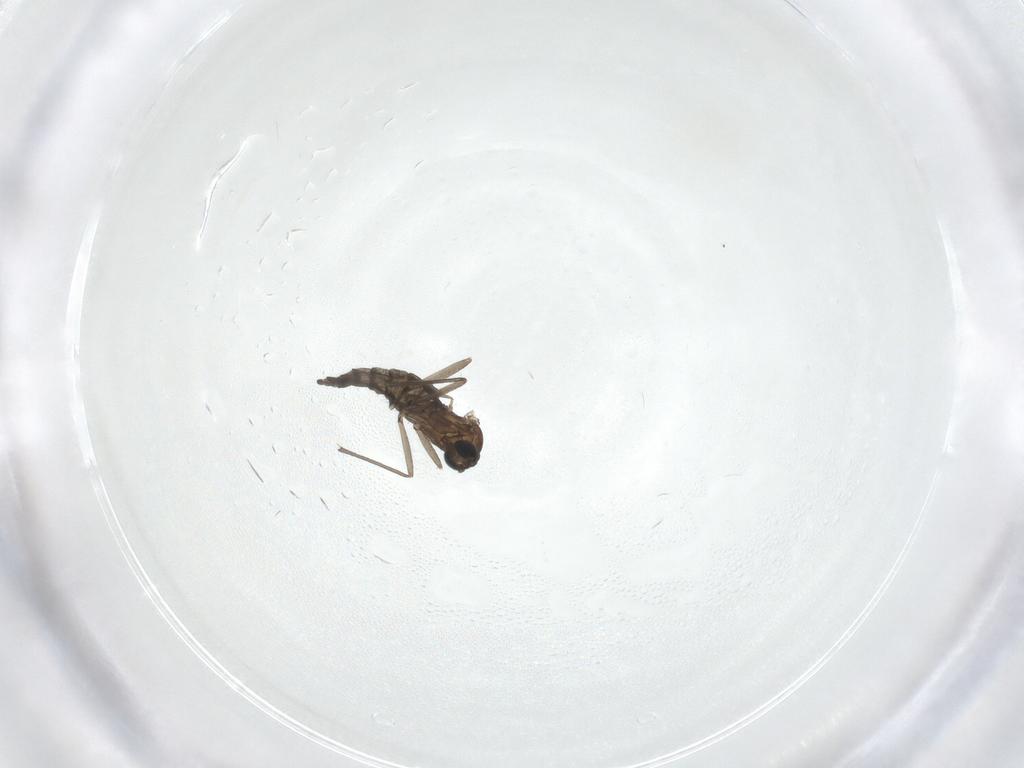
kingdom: Animalia
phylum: Arthropoda
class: Insecta
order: Diptera
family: Sciaridae
